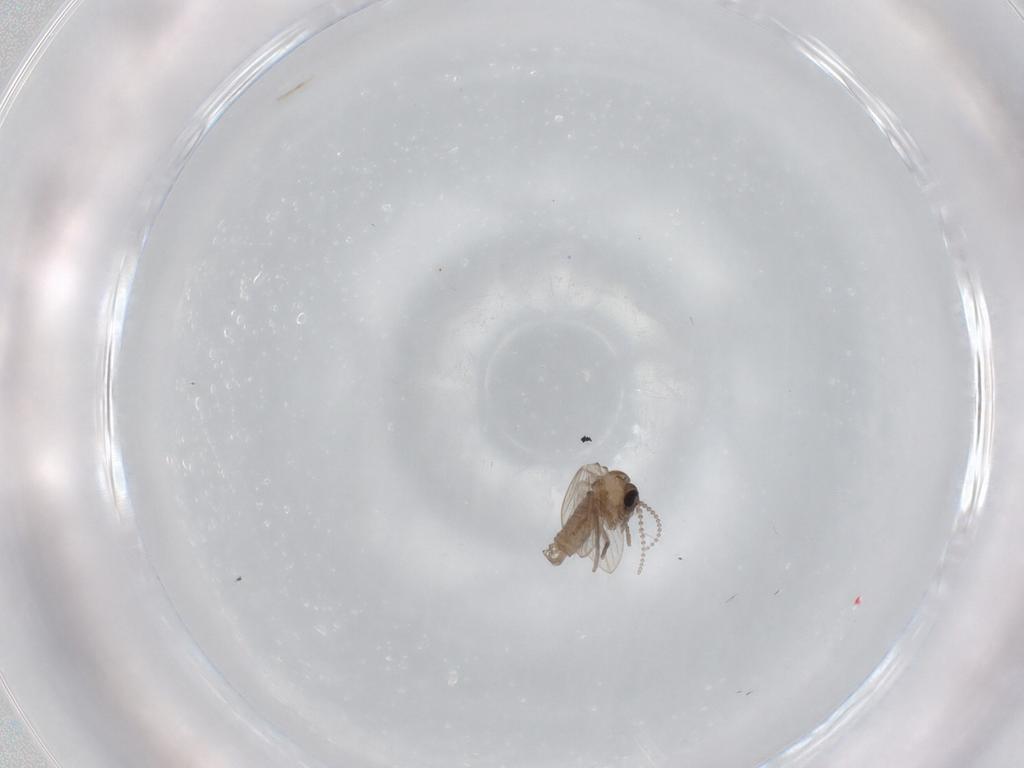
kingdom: Animalia
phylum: Arthropoda
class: Insecta
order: Diptera
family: Psychodidae
